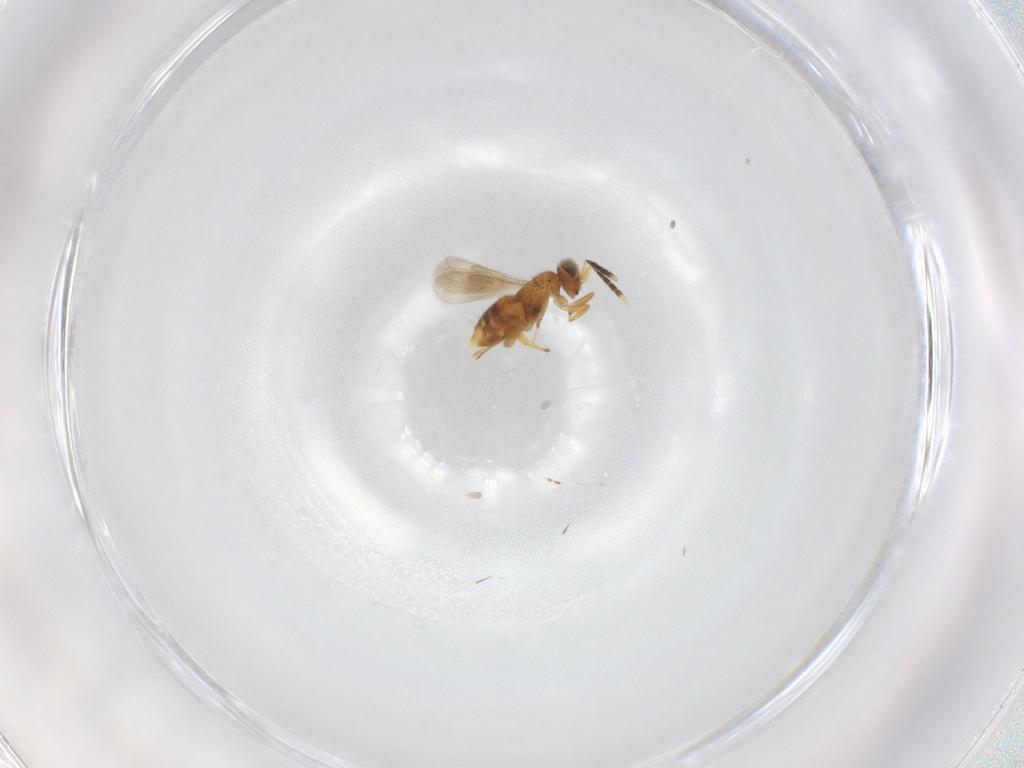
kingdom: Animalia
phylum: Arthropoda
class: Insecta
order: Hymenoptera
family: Aphelinidae
